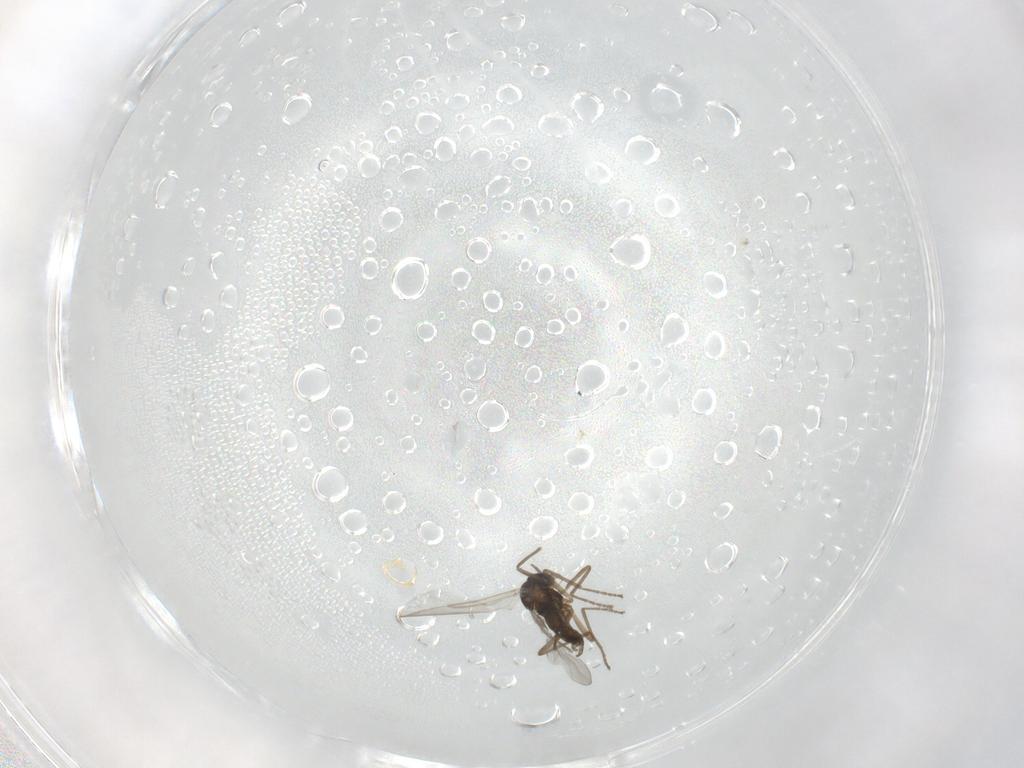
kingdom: Animalia
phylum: Arthropoda
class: Insecta
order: Diptera
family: Cecidomyiidae
